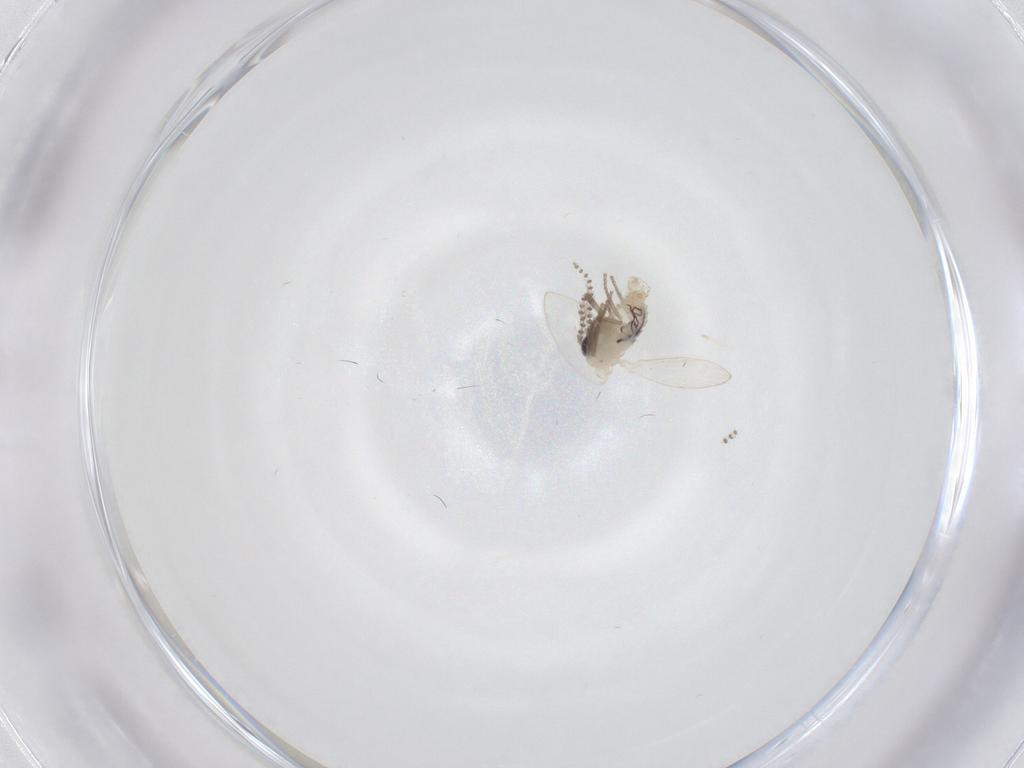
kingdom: Animalia
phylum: Arthropoda
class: Insecta
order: Diptera
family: Psychodidae
